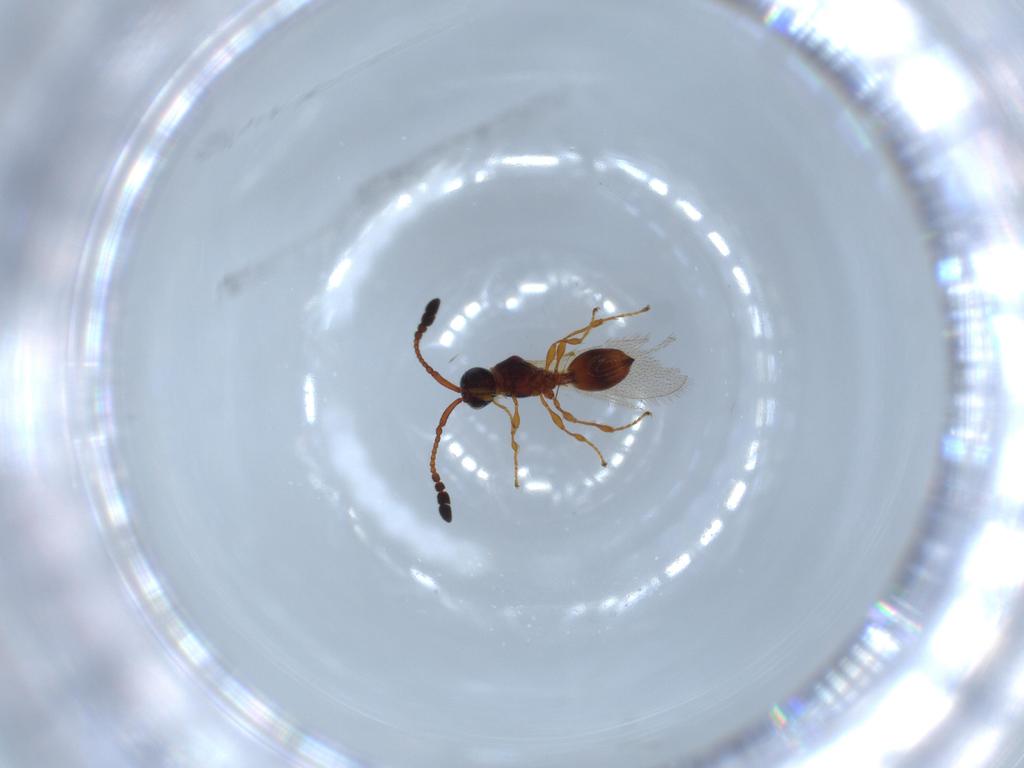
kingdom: Animalia
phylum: Arthropoda
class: Insecta
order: Hymenoptera
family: Diapriidae
